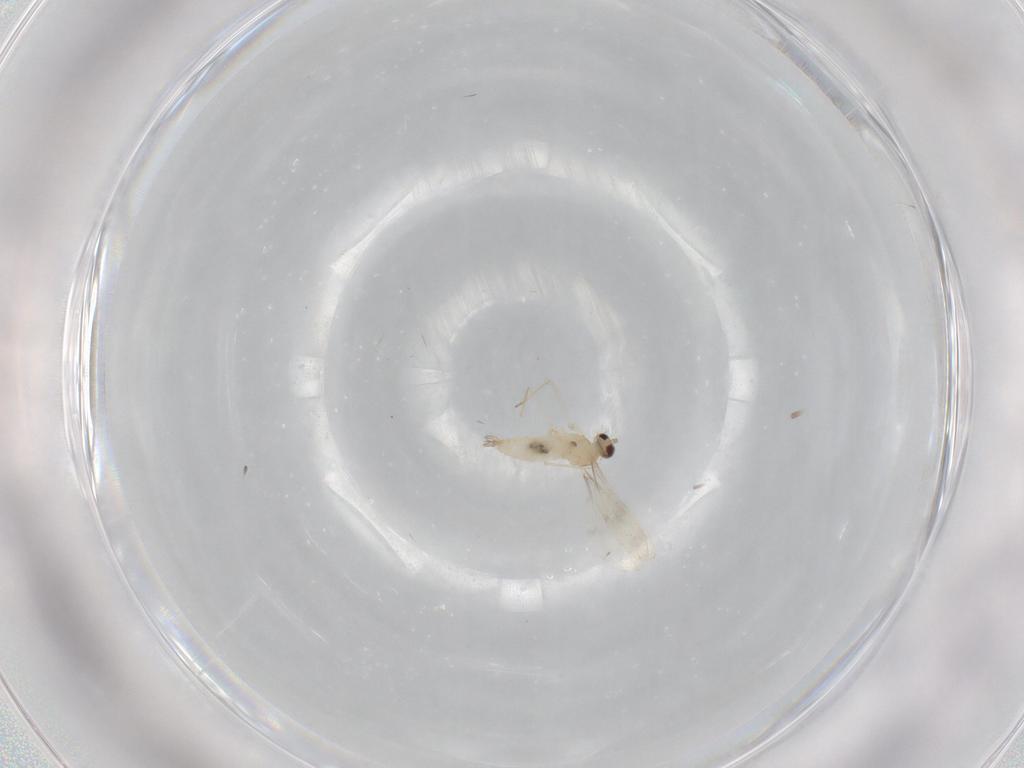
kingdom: Animalia
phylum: Arthropoda
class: Insecta
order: Diptera
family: Cecidomyiidae
